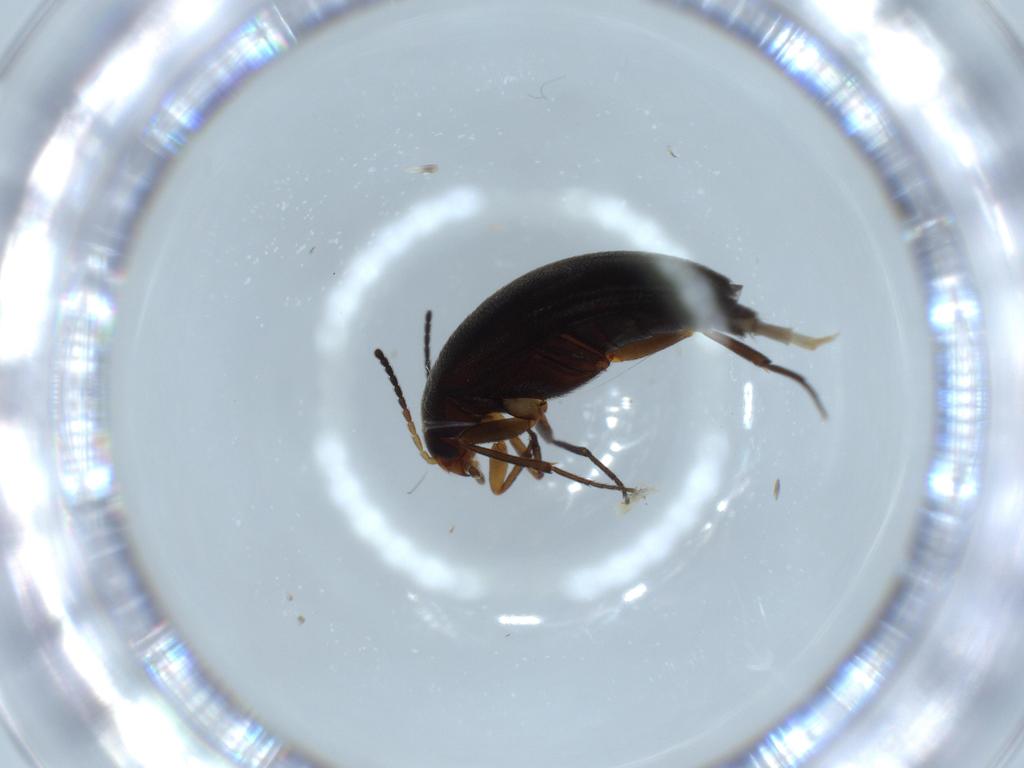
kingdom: Animalia
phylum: Arthropoda
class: Insecta
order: Coleoptera
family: Melandryidae
